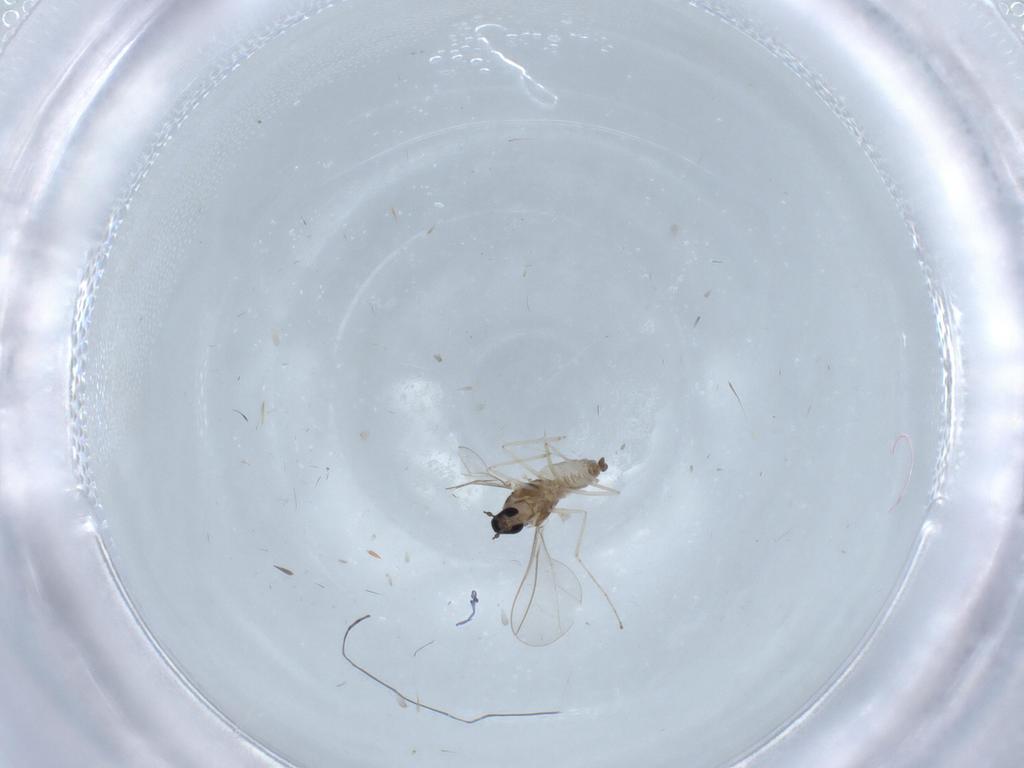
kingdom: Animalia
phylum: Arthropoda
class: Insecta
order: Diptera
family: Cecidomyiidae
